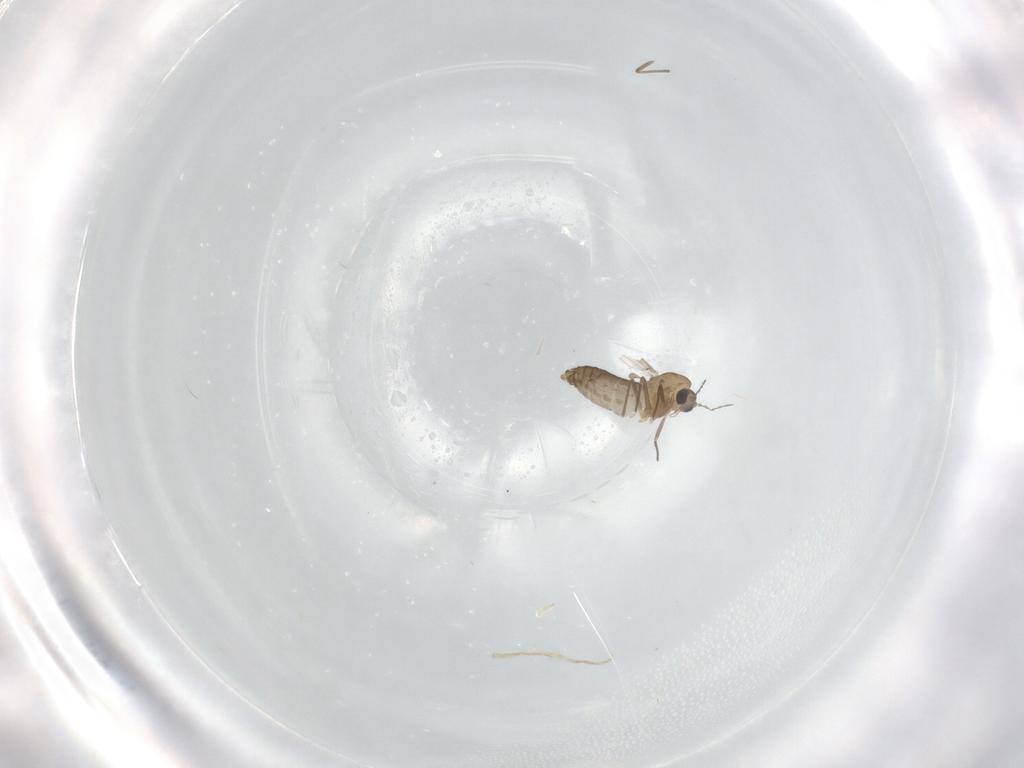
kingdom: Animalia
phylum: Arthropoda
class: Insecta
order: Diptera
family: Chironomidae
